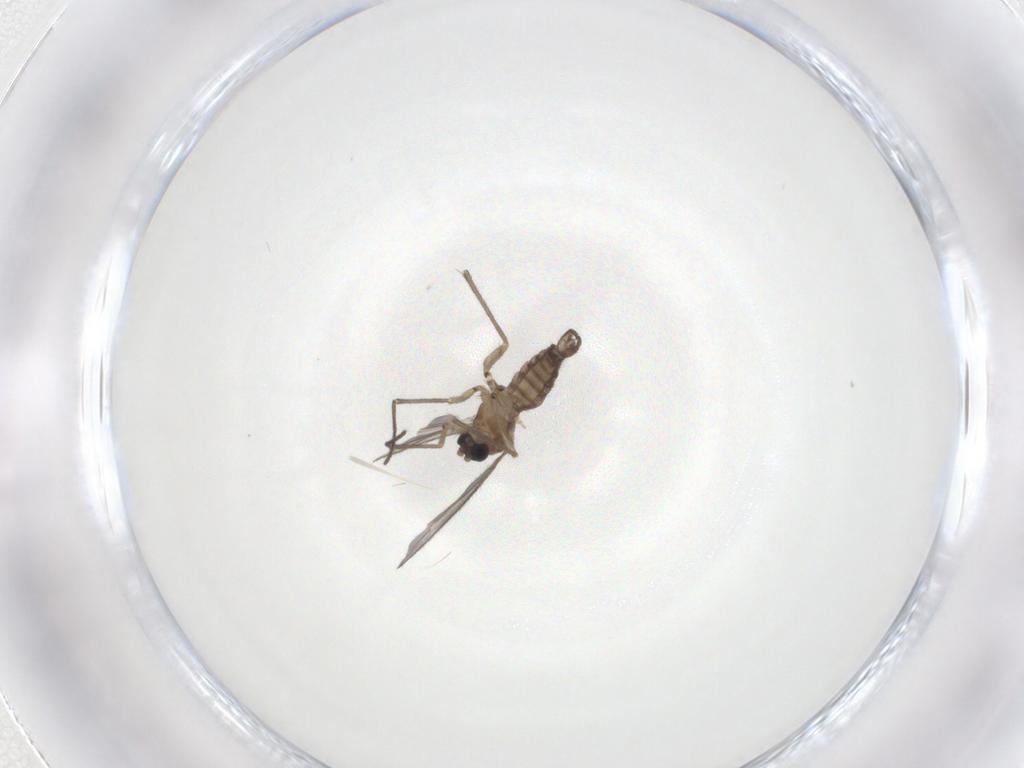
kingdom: Animalia
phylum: Arthropoda
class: Insecta
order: Diptera
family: Sciaridae
